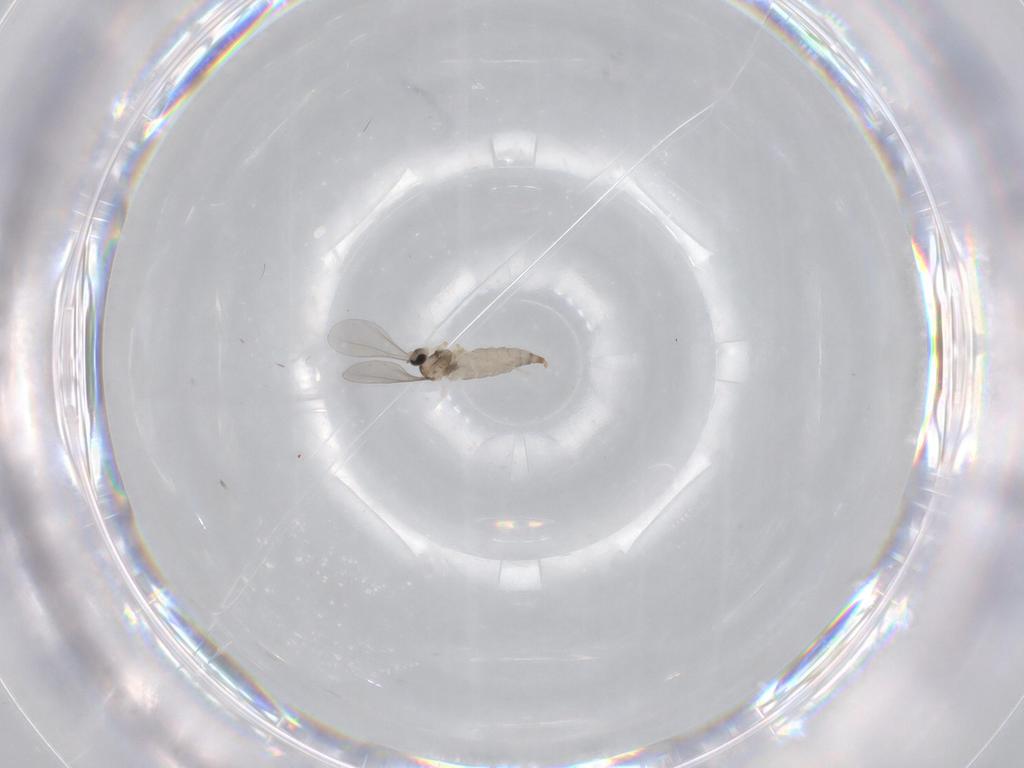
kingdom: Animalia
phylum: Arthropoda
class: Insecta
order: Diptera
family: Cecidomyiidae
